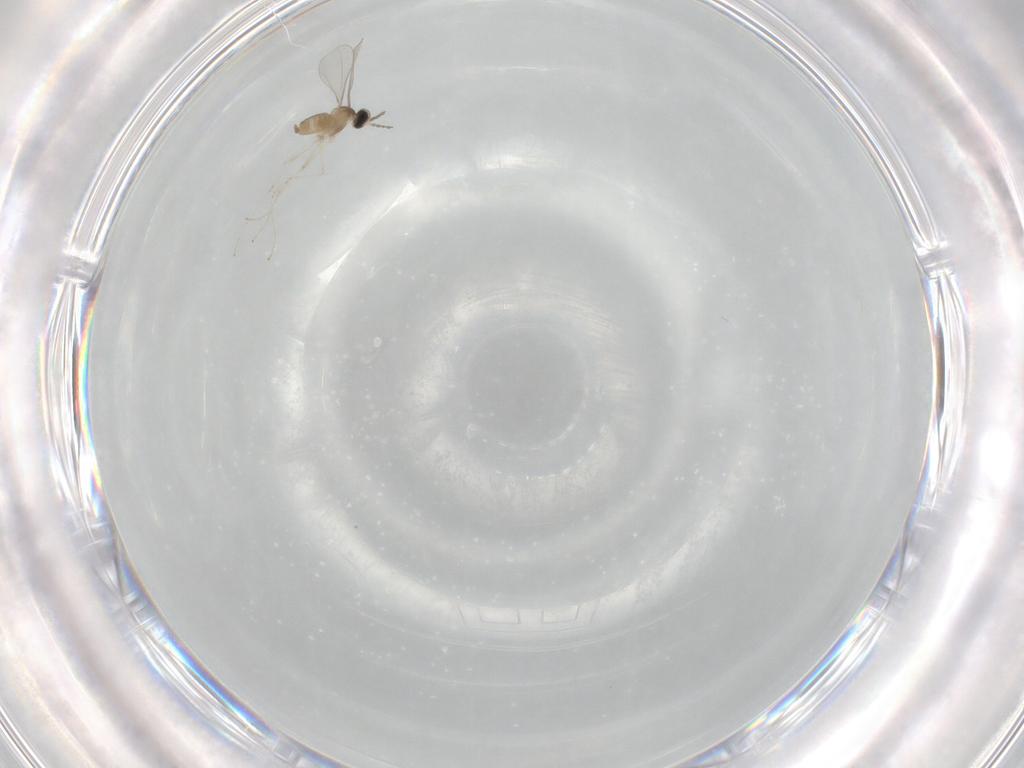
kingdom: Animalia
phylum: Arthropoda
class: Insecta
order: Diptera
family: Cecidomyiidae
